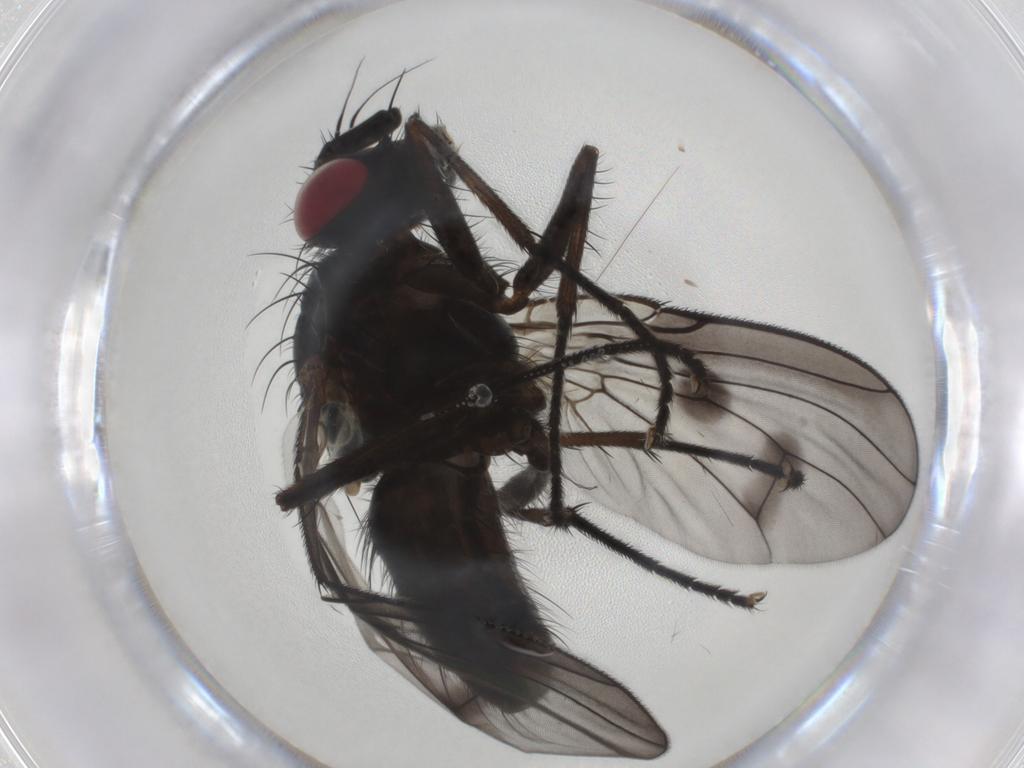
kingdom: Animalia
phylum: Arthropoda
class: Insecta
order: Diptera
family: Muscidae
